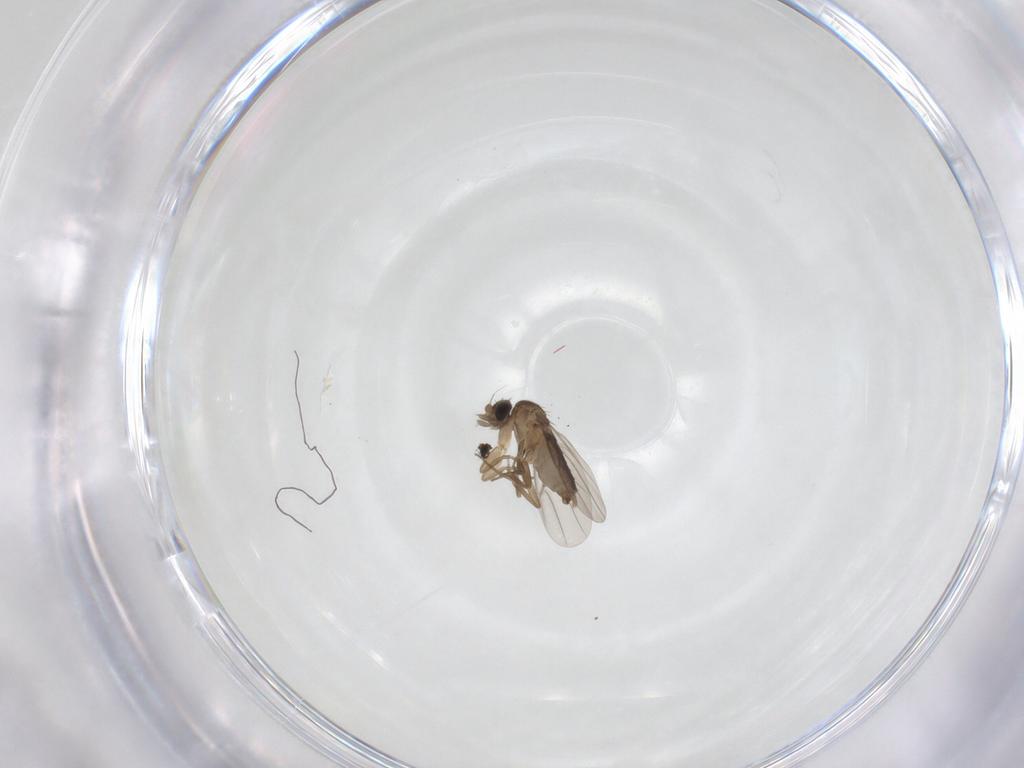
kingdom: Animalia
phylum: Arthropoda
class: Insecta
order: Diptera
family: Phoridae
